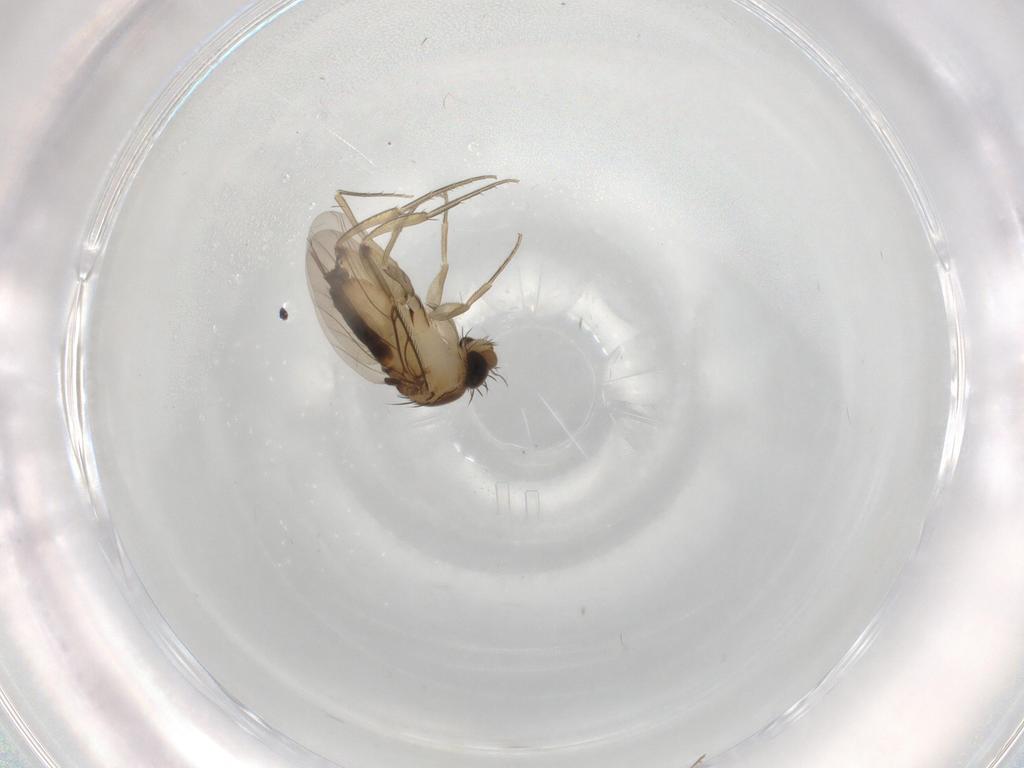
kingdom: Animalia
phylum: Arthropoda
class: Insecta
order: Diptera
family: Phoridae
